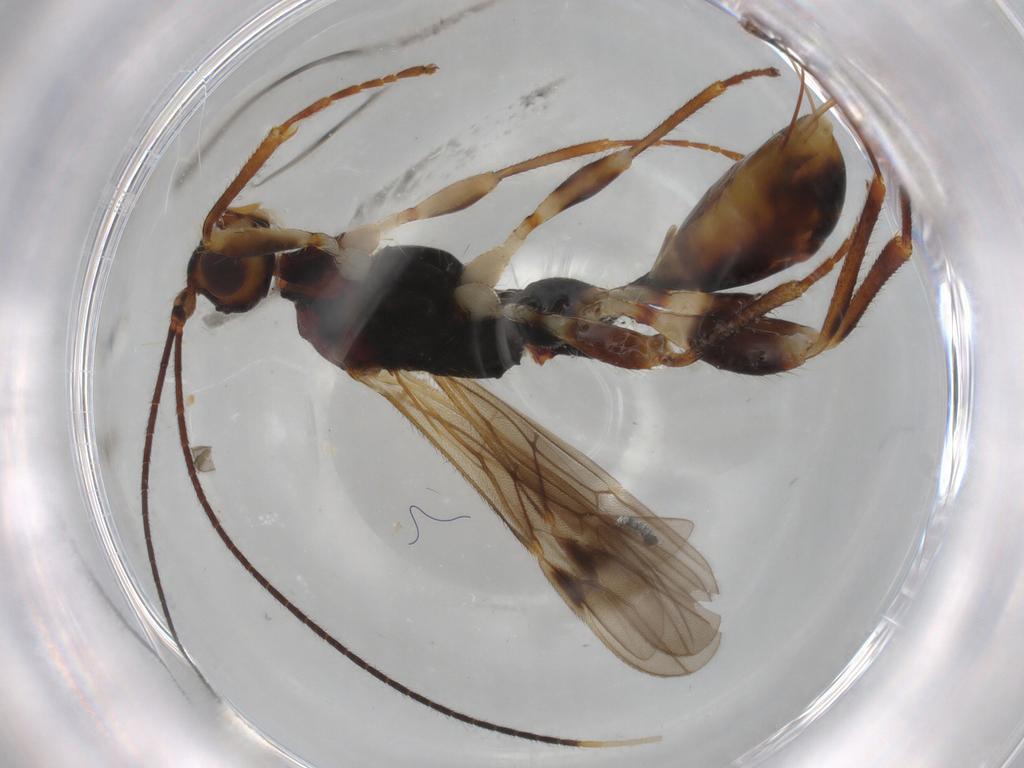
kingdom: Animalia
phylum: Arthropoda
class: Insecta
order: Hymenoptera
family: Braconidae
